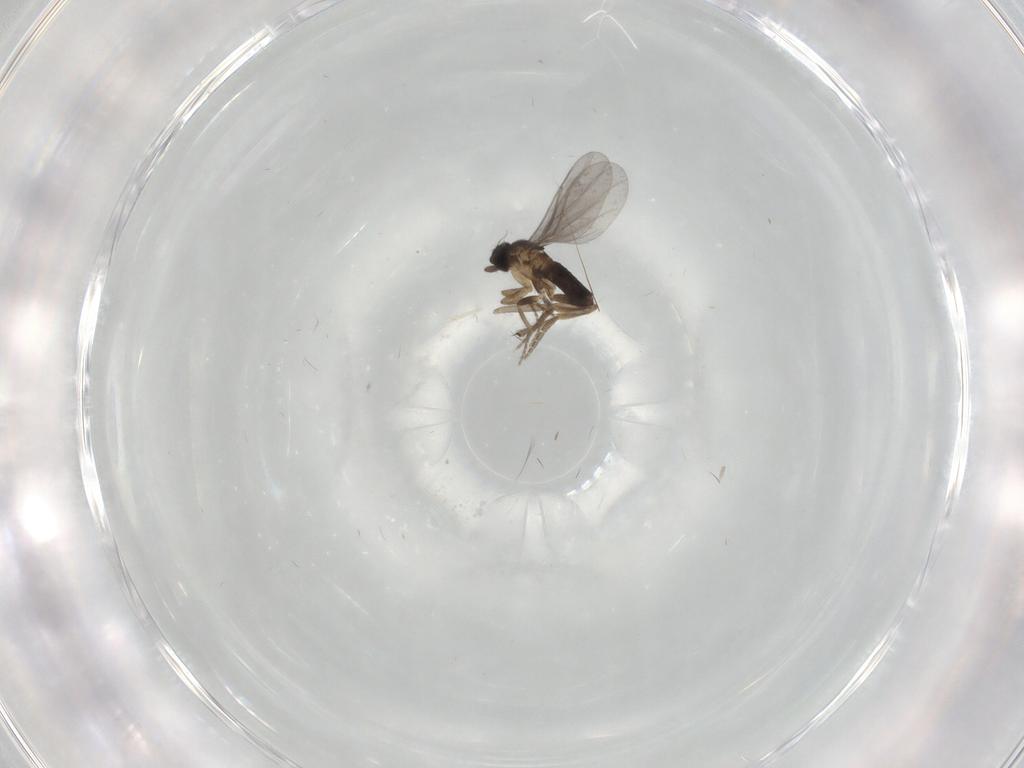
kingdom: Animalia
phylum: Arthropoda
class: Insecta
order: Diptera
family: Chironomidae
